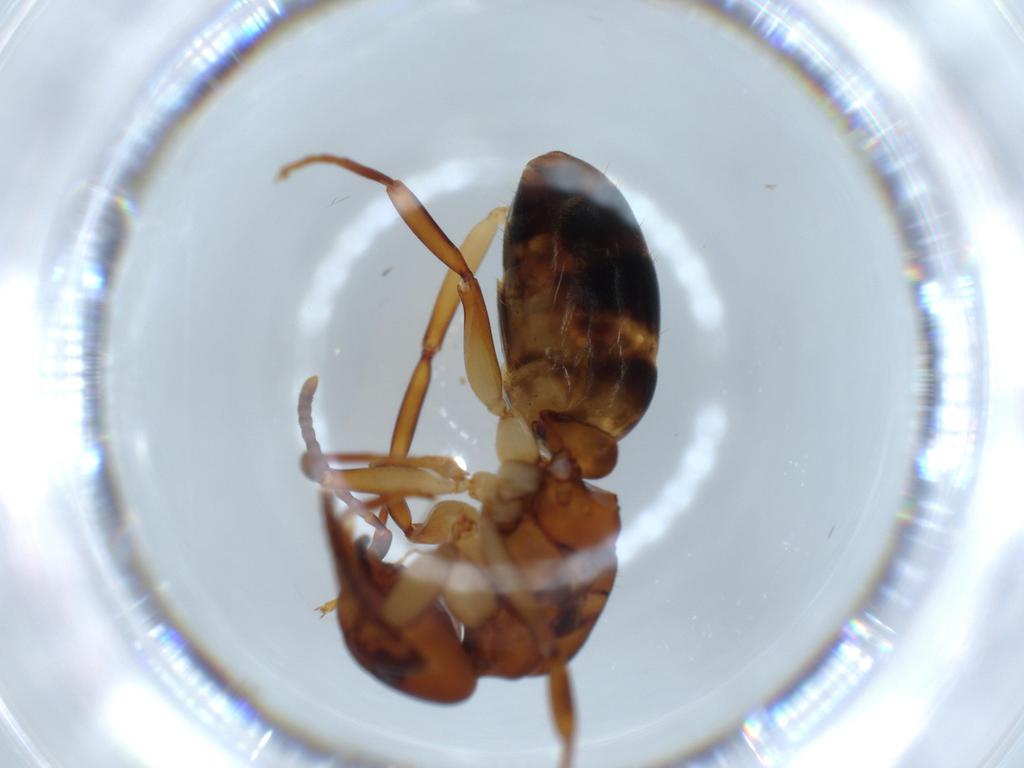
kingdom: Animalia
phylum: Arthropoda
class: Insecta
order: Hymenoptera
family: Formicidae
